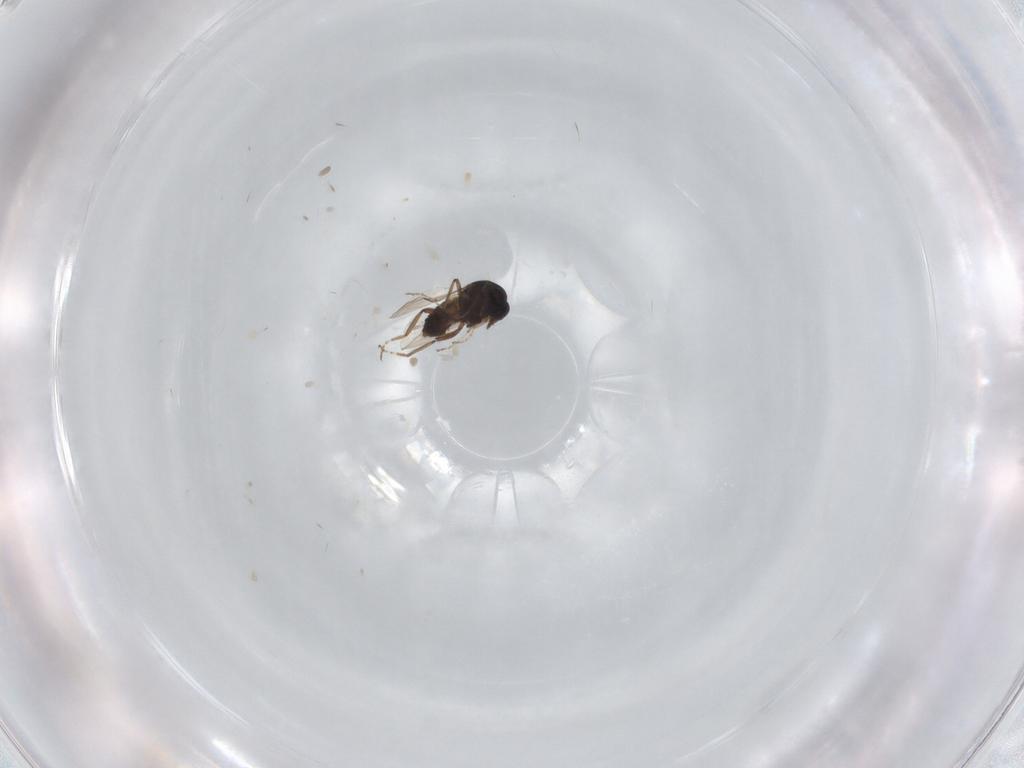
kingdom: Animalia
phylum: Arthropoda
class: Insecta
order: Diptera
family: Ceratopogonidae
